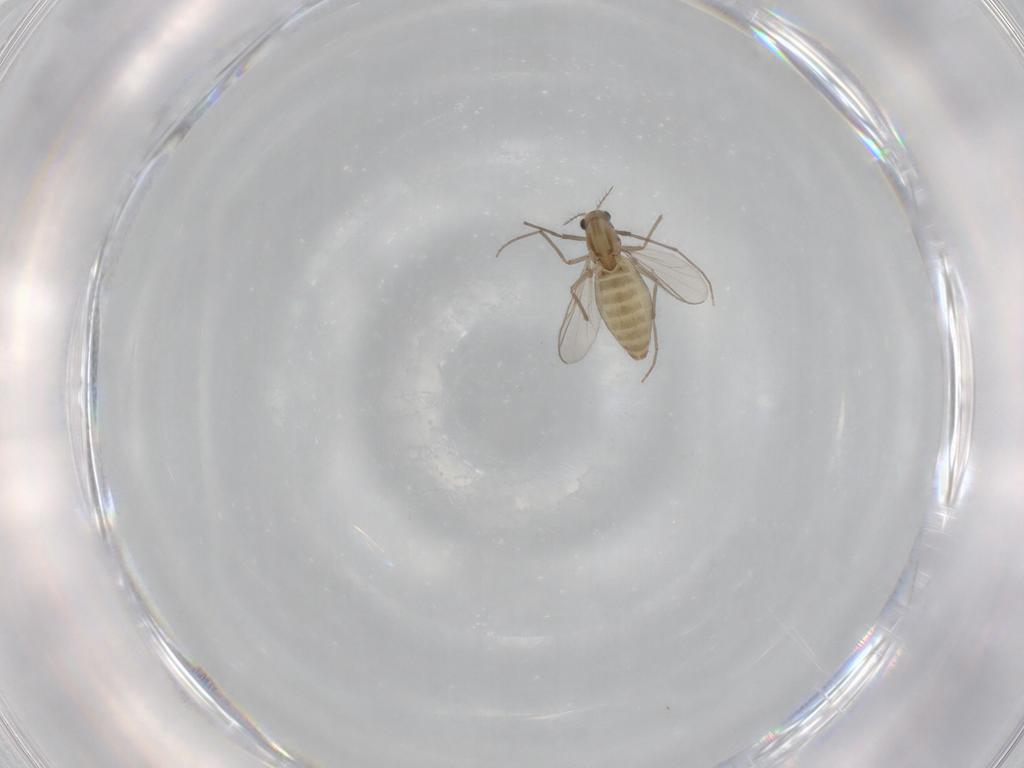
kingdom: Animalia
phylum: Arthropoda
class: Insecta
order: Diptera
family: Chironomidae
